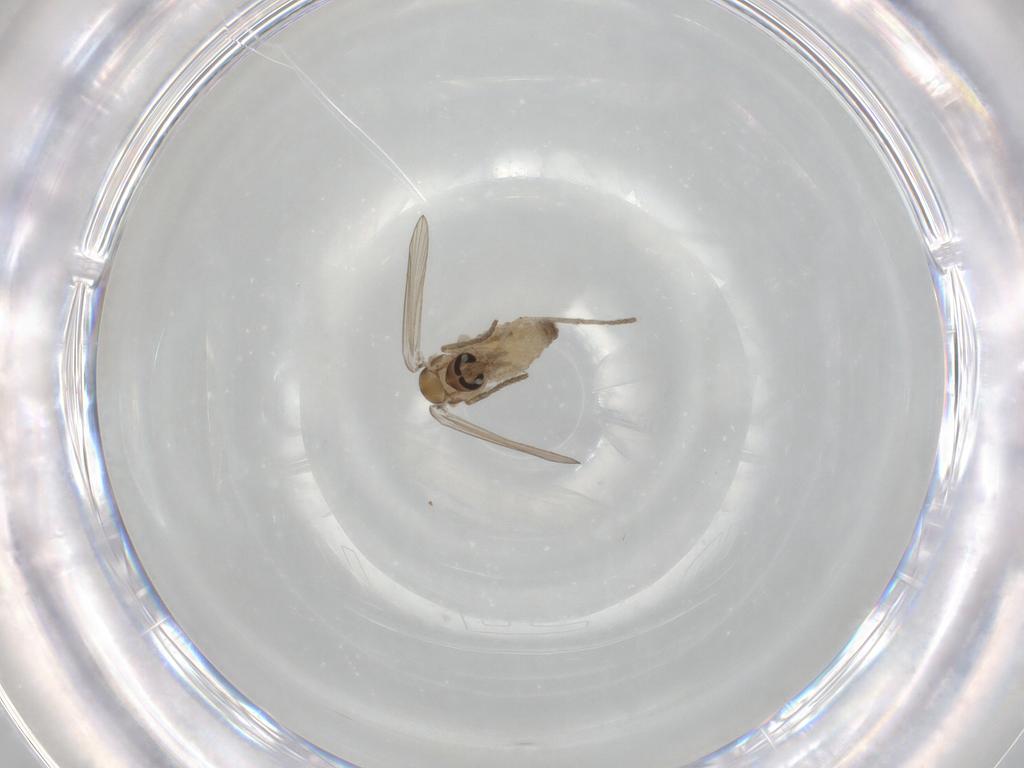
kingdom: Animalia
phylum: Arthropoda
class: Insecta
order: Diptera
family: Psychodidae
